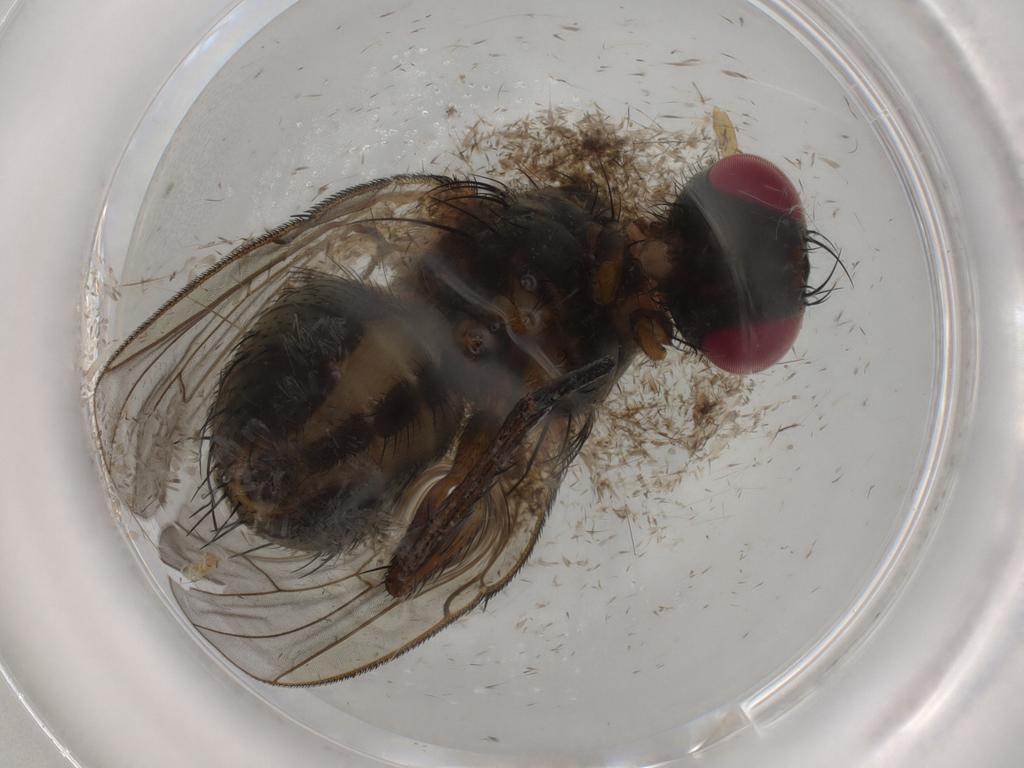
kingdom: Animalia
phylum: Arthropoda
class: Insecta
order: Diptera
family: Muscidae
